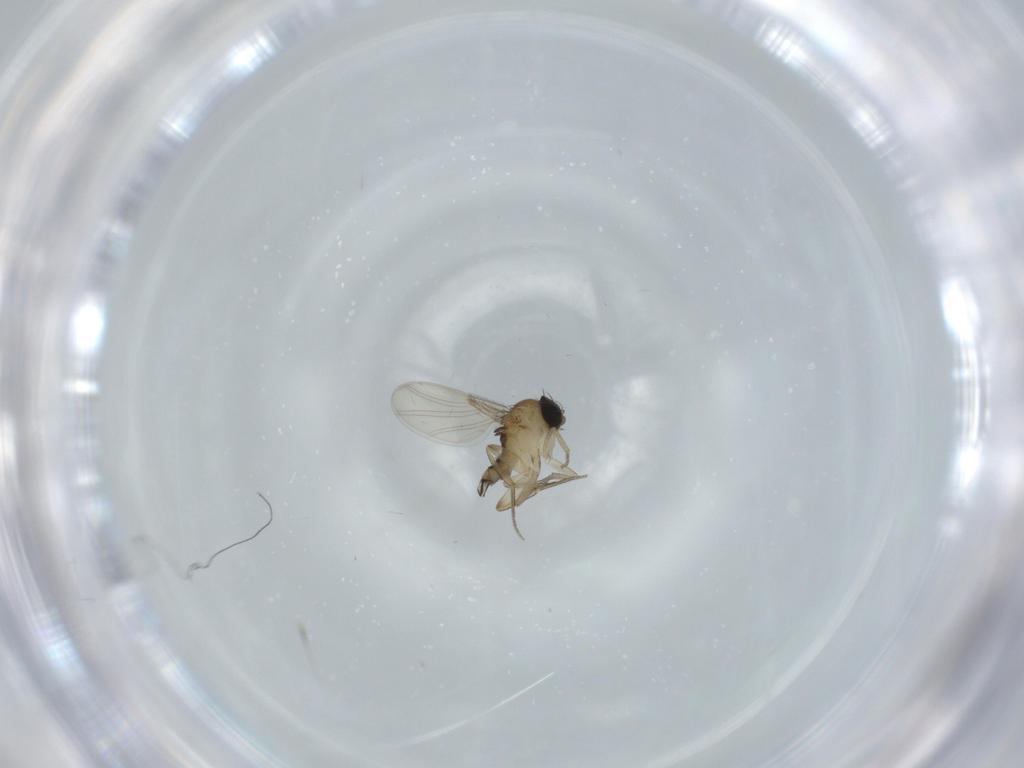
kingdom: Animalia
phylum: Arthropoda
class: Insecta
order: Diptera
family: Phoridae
